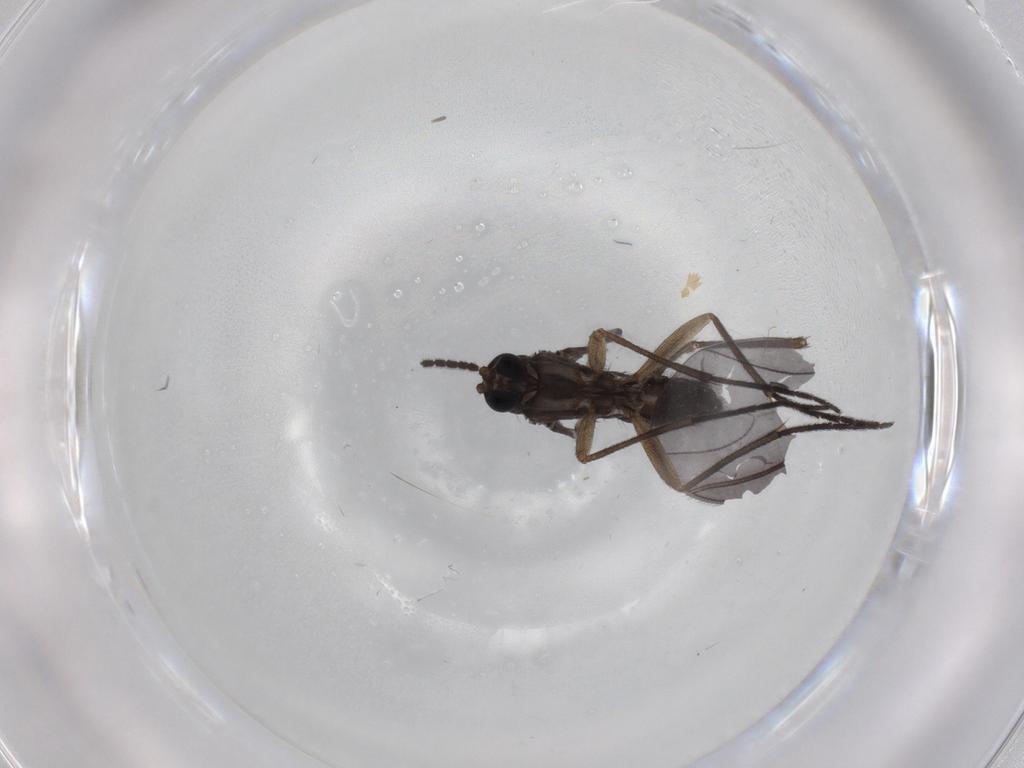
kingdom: Animalia
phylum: Arthropoda
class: Insecta
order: Diptera
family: Sciaridae
